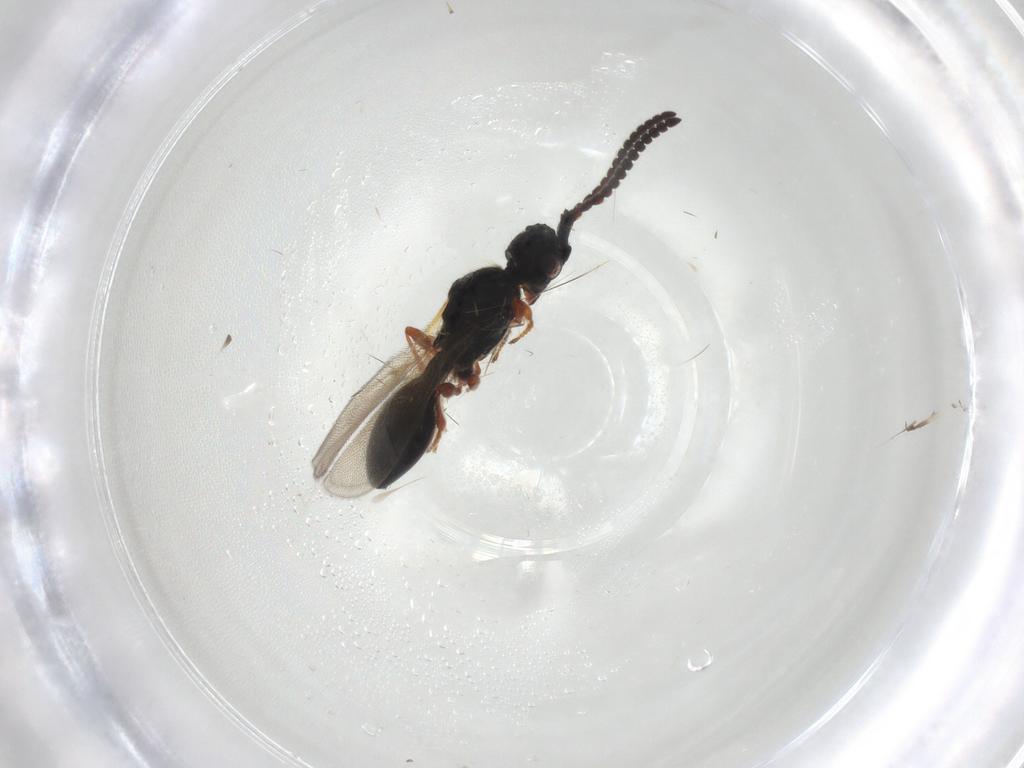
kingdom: Animalia
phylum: Arthropoda
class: Insecta
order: Hymenoptera
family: Diapriidae
